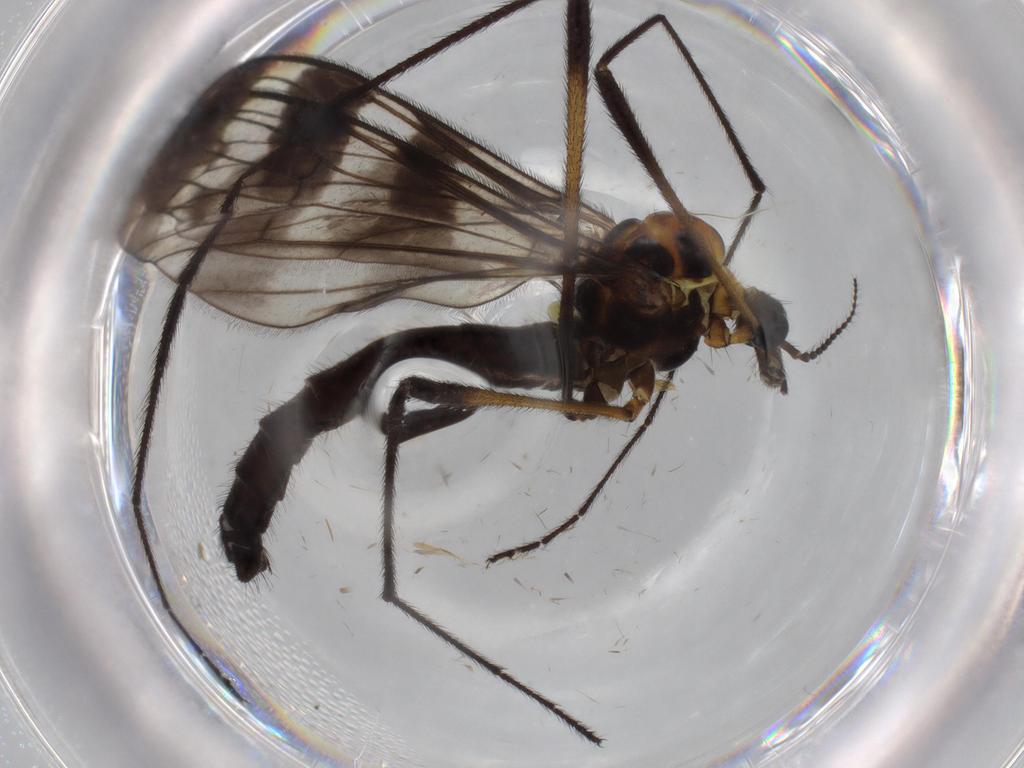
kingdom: Animalia
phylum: Arthropoda
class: Insecta
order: Diptera
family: Limoniidae
